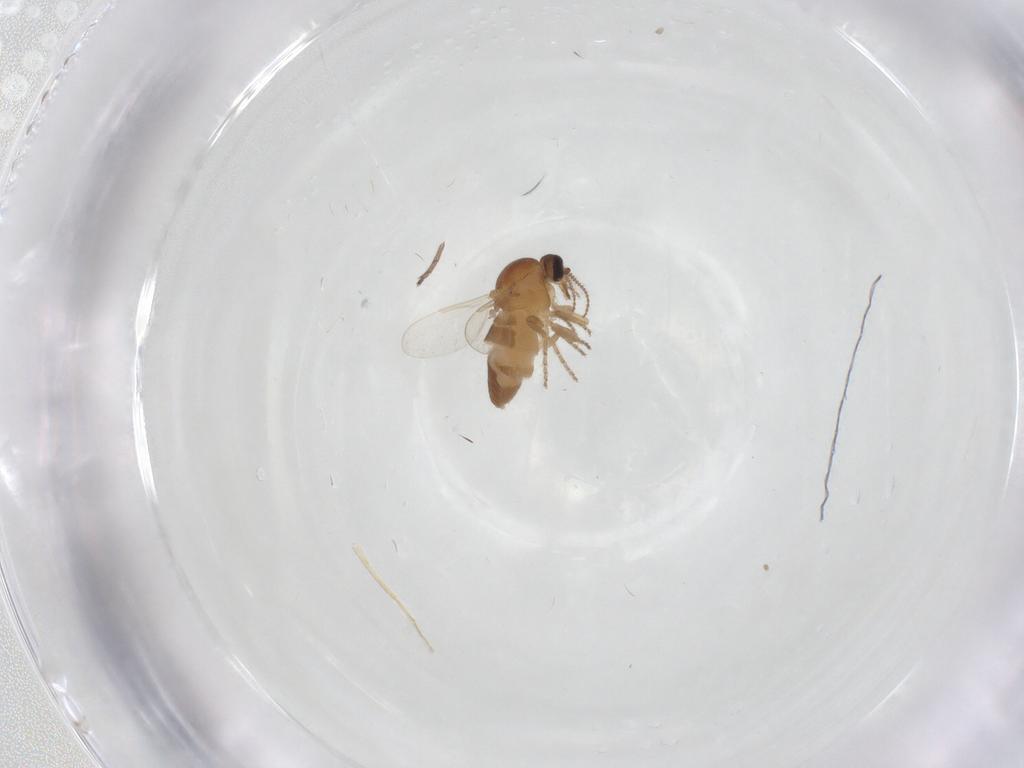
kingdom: Animalia
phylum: Arthropoda
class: Insecta
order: Diptera
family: Ceratopogonidae
